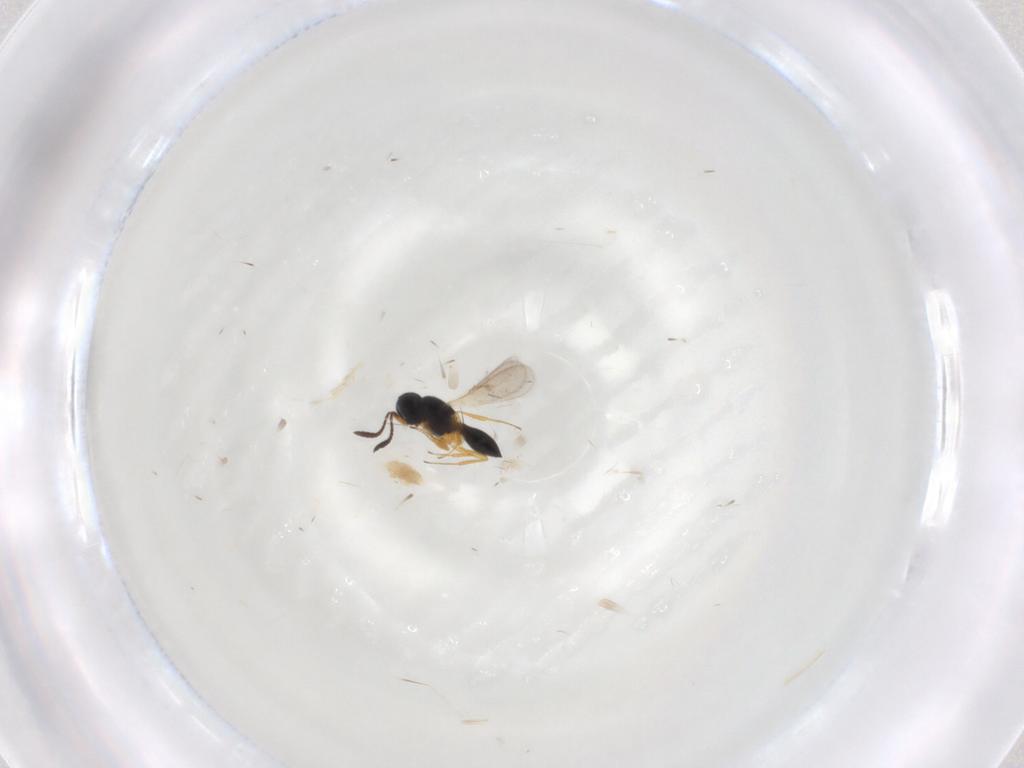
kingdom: Animalia
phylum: Arthropoda
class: Insecta
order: Hymenoptera
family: Scelionidae
